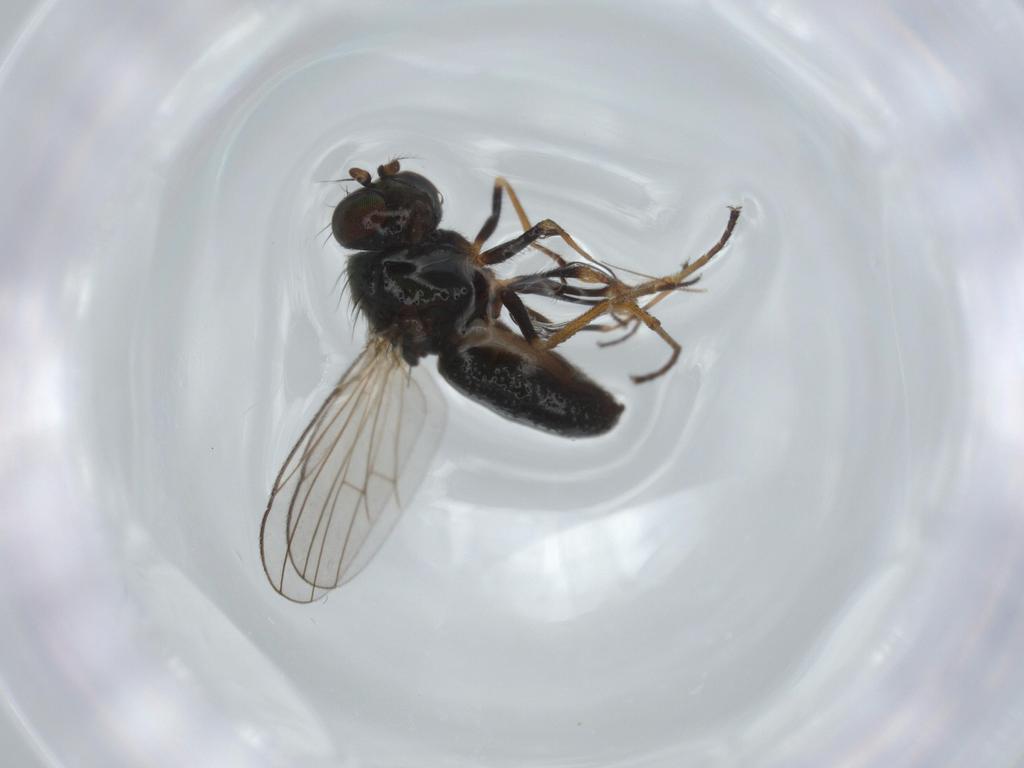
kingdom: Animalia
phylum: Arthropoda
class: Insecta
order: Diptera
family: Ephydridae
